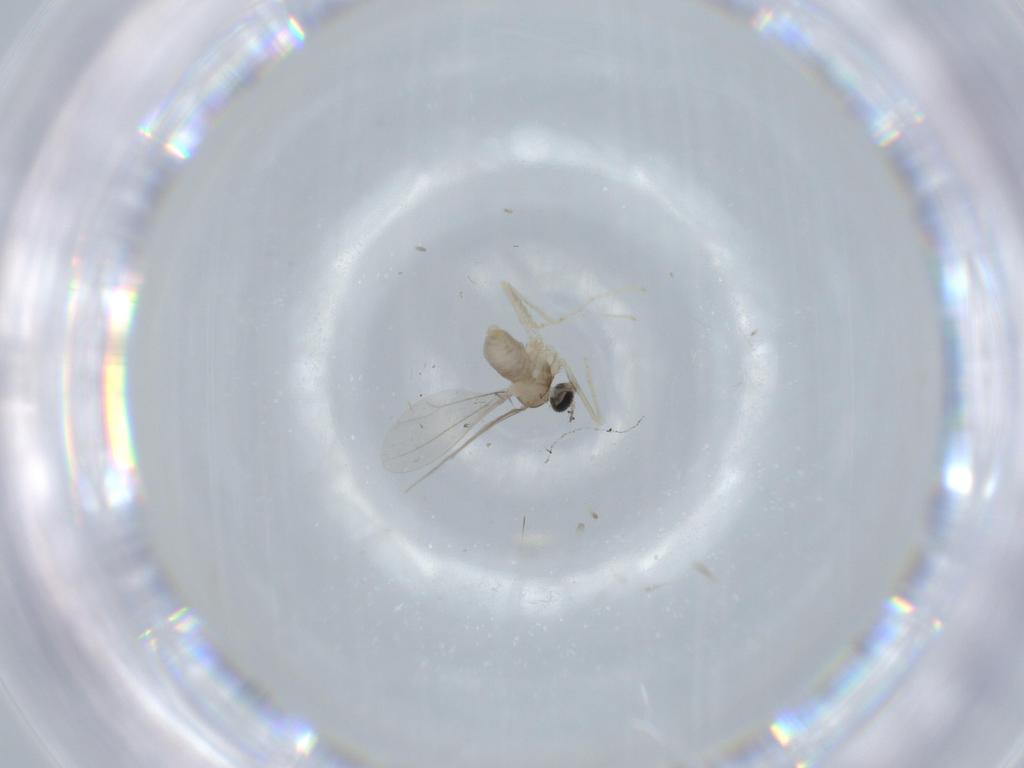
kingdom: Animalia
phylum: Arthropoda
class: Insecta
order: Diptera
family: Cecidomyiidae
